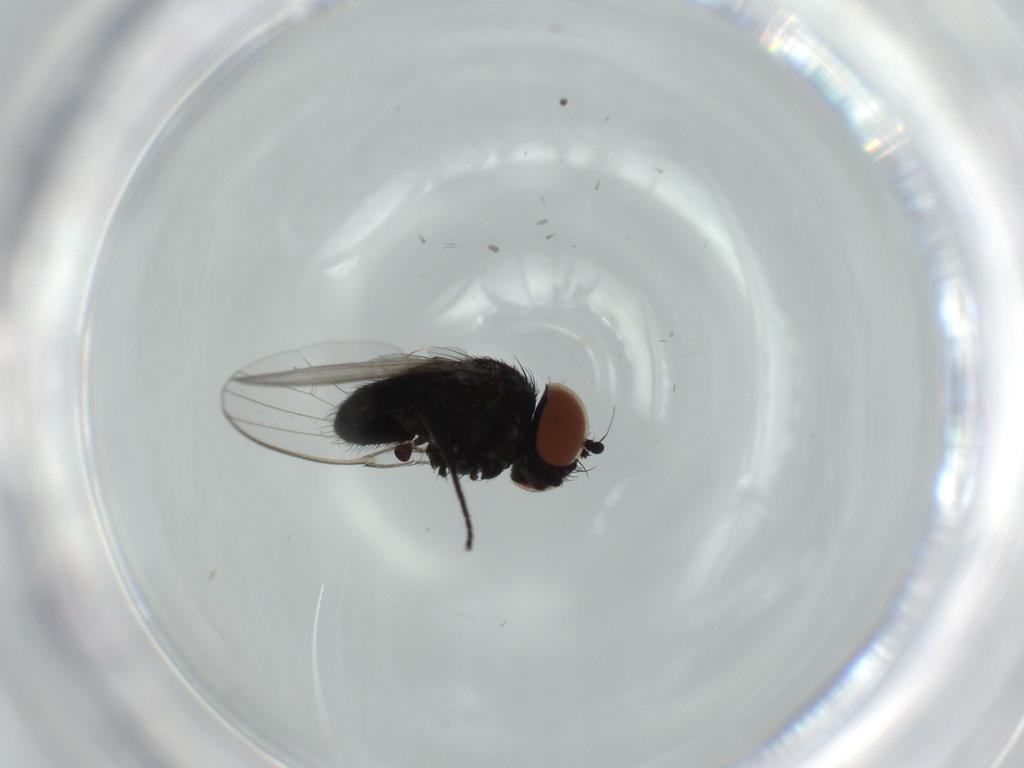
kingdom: Animalia
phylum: Arthropoda
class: Insecta
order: Diptera
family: Milichiidae
